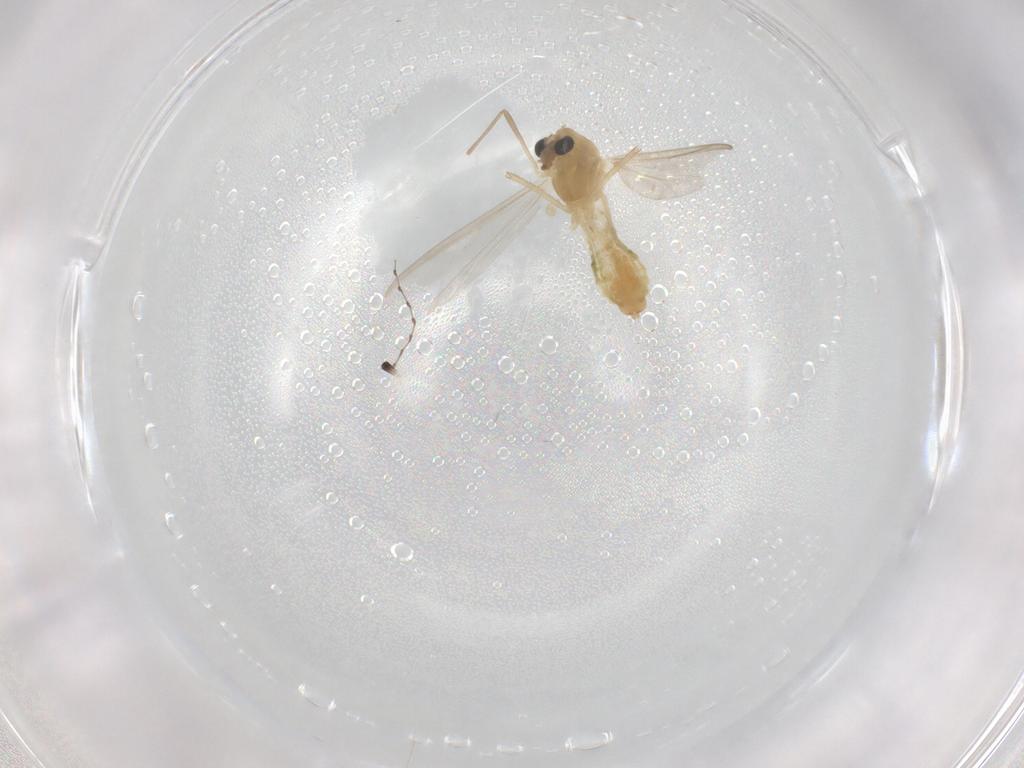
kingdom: Animalia
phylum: Arthropoda
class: Insecta
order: Diptera
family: Chironomidae
